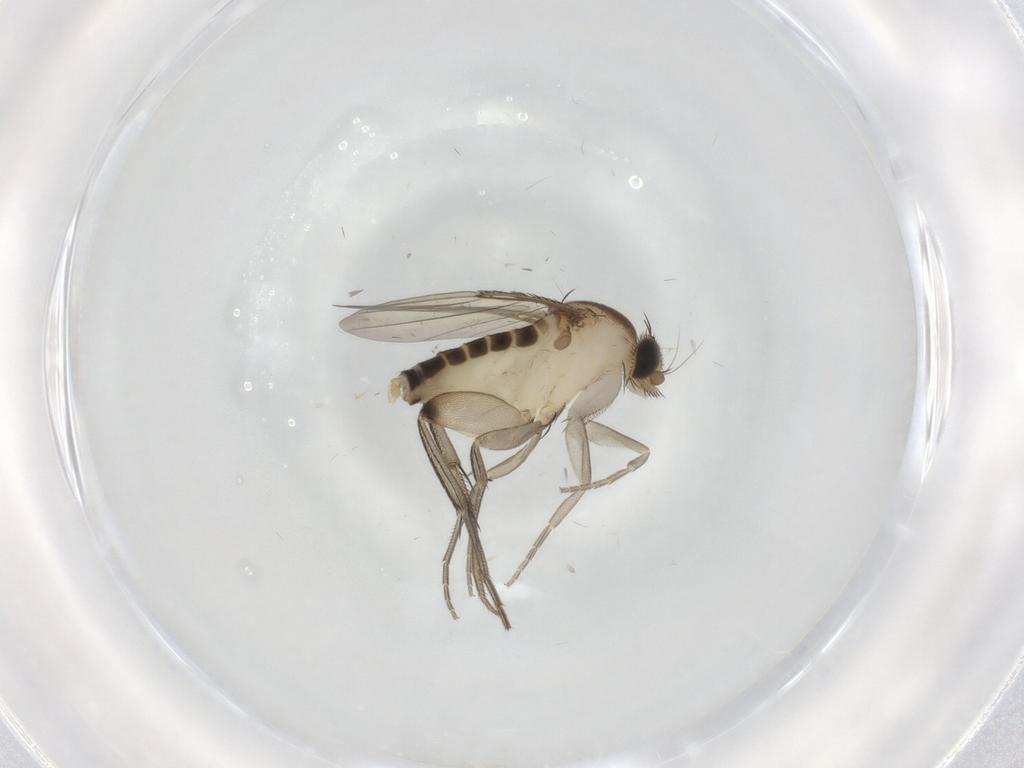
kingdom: Animalia
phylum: Arthropoda
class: Insecta
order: Diptera
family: Phoridae
